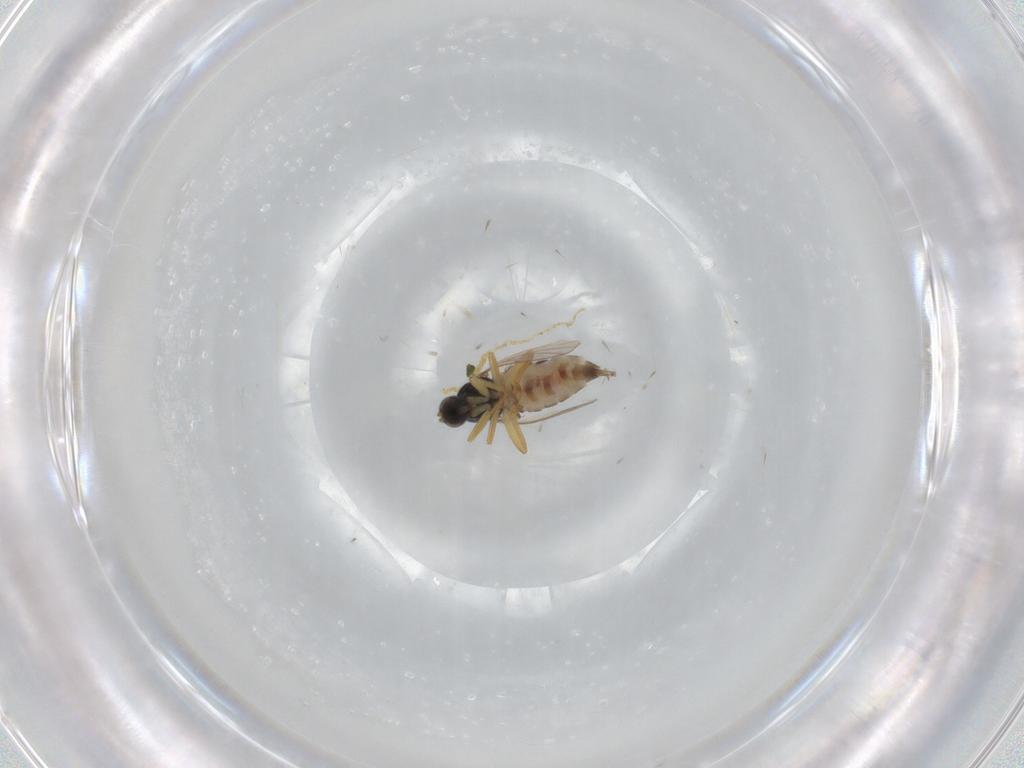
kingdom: Animalia
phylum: Arthropoda
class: Insecta
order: Diptera
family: Hybotidae
